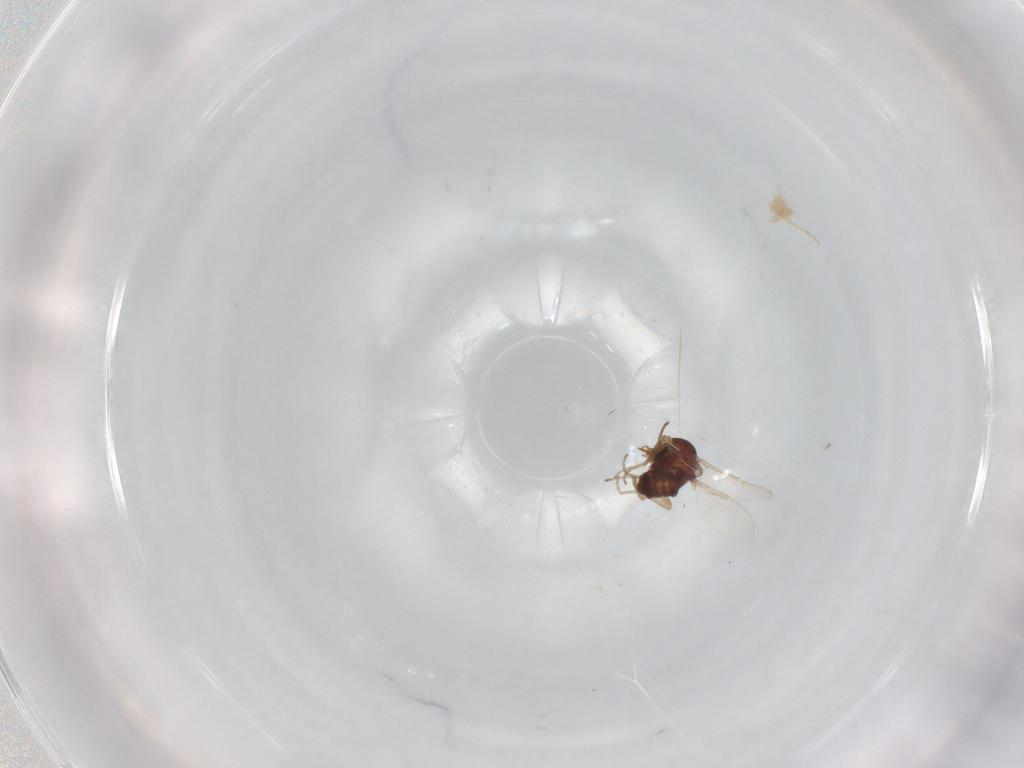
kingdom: Animalia
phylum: Arthropoda
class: Insecta
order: Diptera
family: Ceratopogonidae
